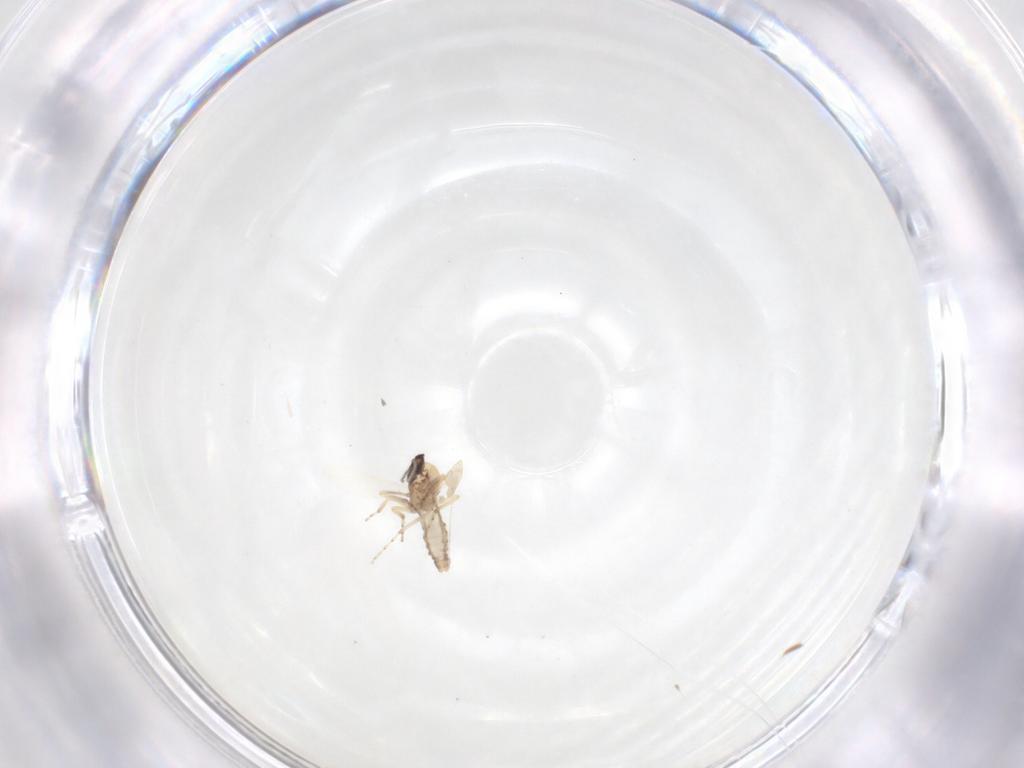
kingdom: Animalia
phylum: Arthropoda
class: Insecta
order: Diptera
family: Ceratopogonidae
